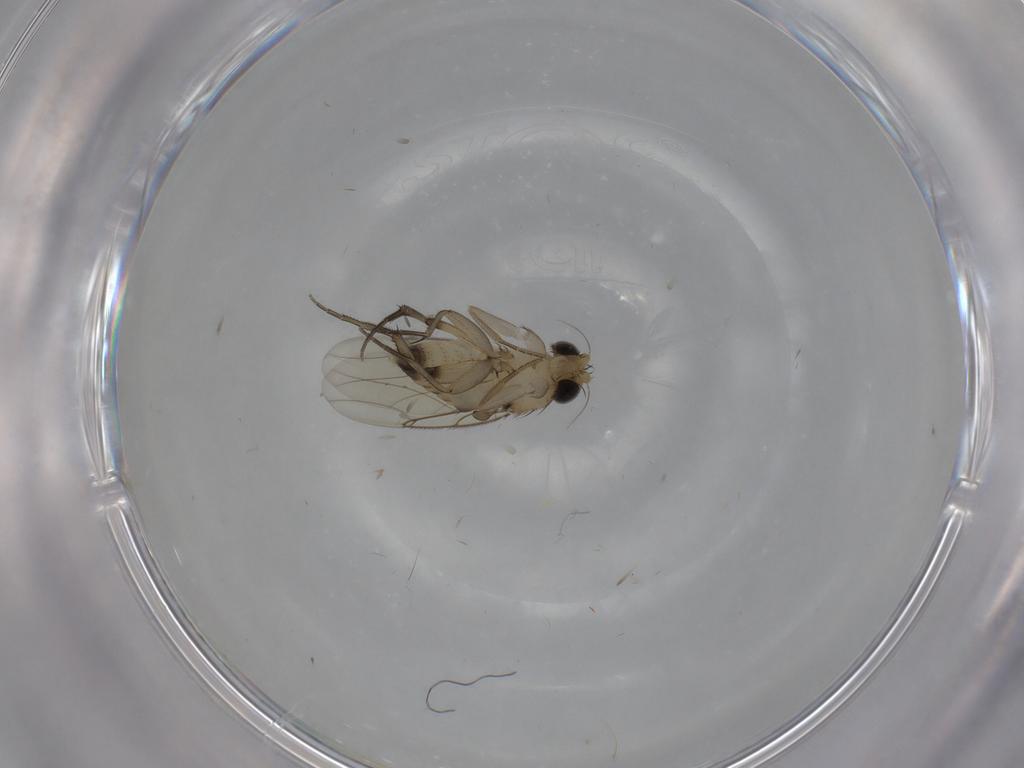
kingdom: Animalia
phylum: Arthropoda
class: Insecta
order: Diptera
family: Phoridae
